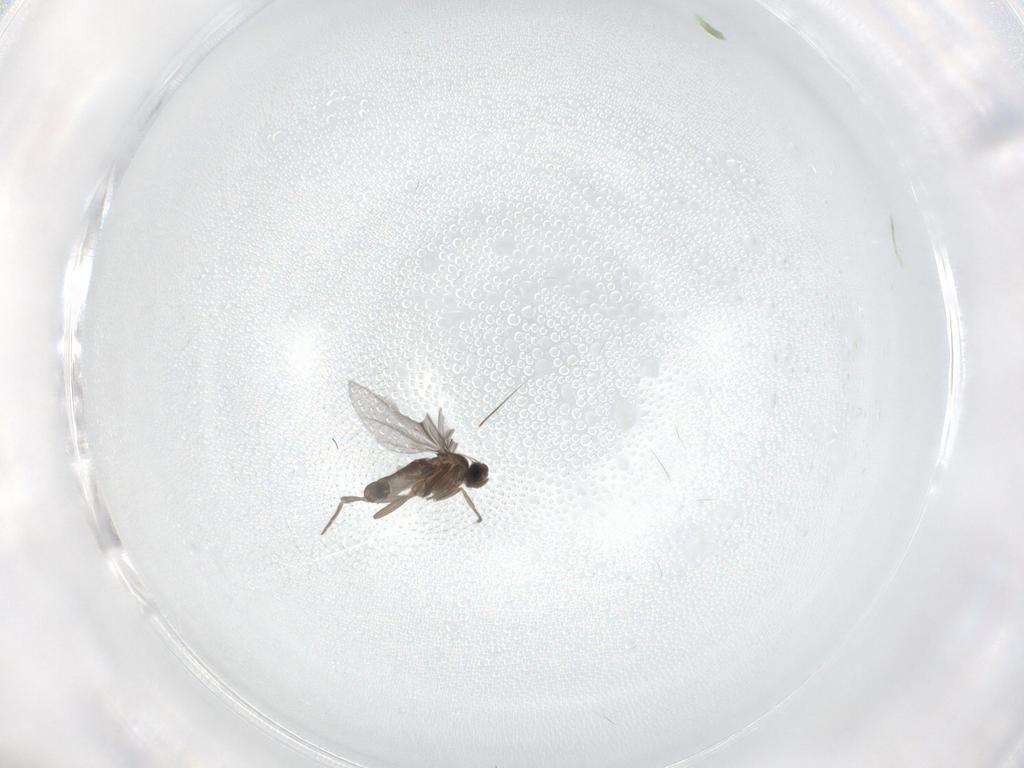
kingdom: Animalia
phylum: Arthropoda
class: Insecta
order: Diptera
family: Cecidomyiidae
